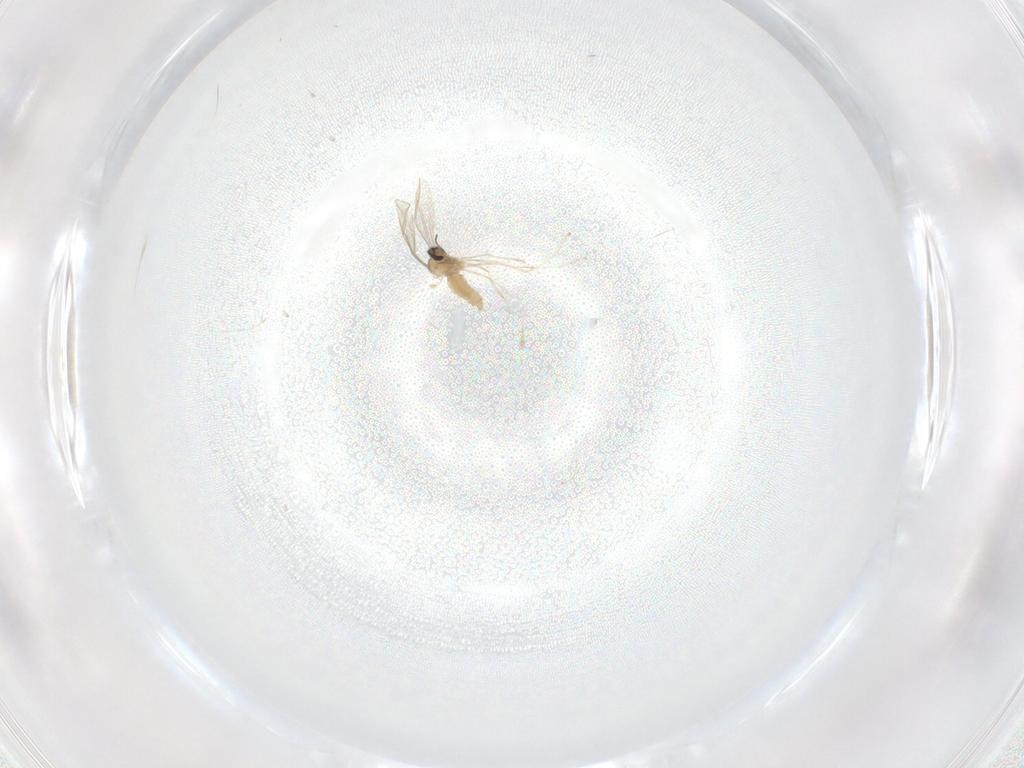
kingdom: Animalia
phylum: Arthropoda
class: Insecta
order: Diptera
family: Cecidomyiidae
